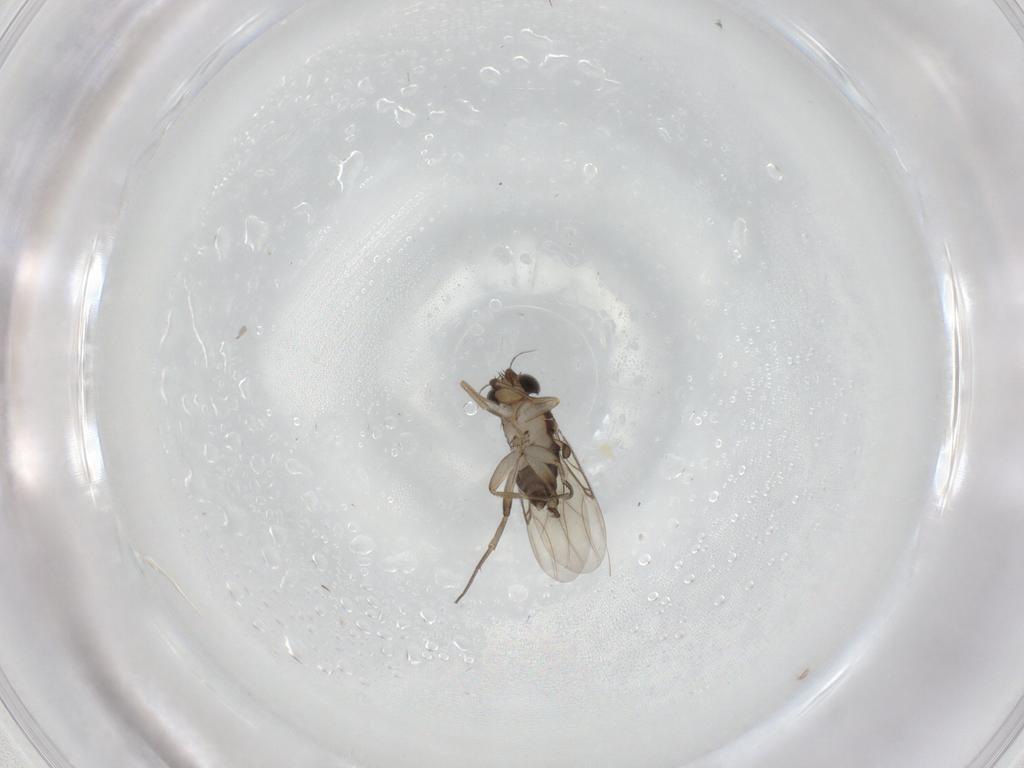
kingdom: Animalia
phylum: Arthropoda
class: Insecta
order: Diptera
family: Phoridae
